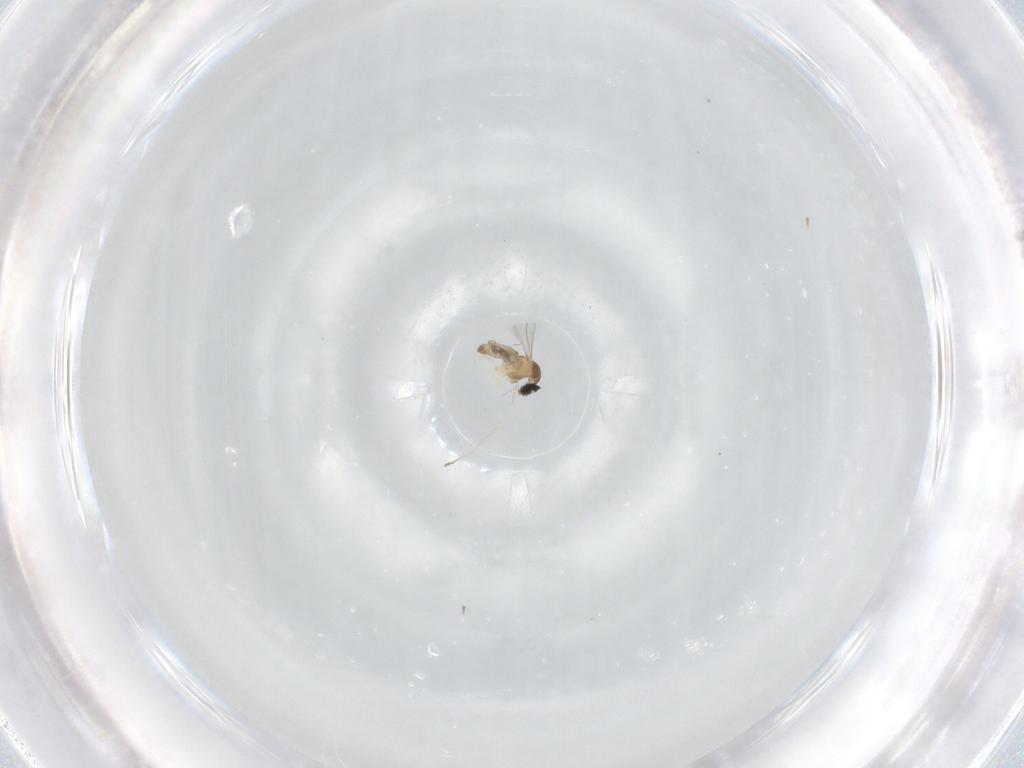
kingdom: Animalia
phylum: Arthropoda
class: Insecta
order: Diptera
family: Cecidomyiidae
